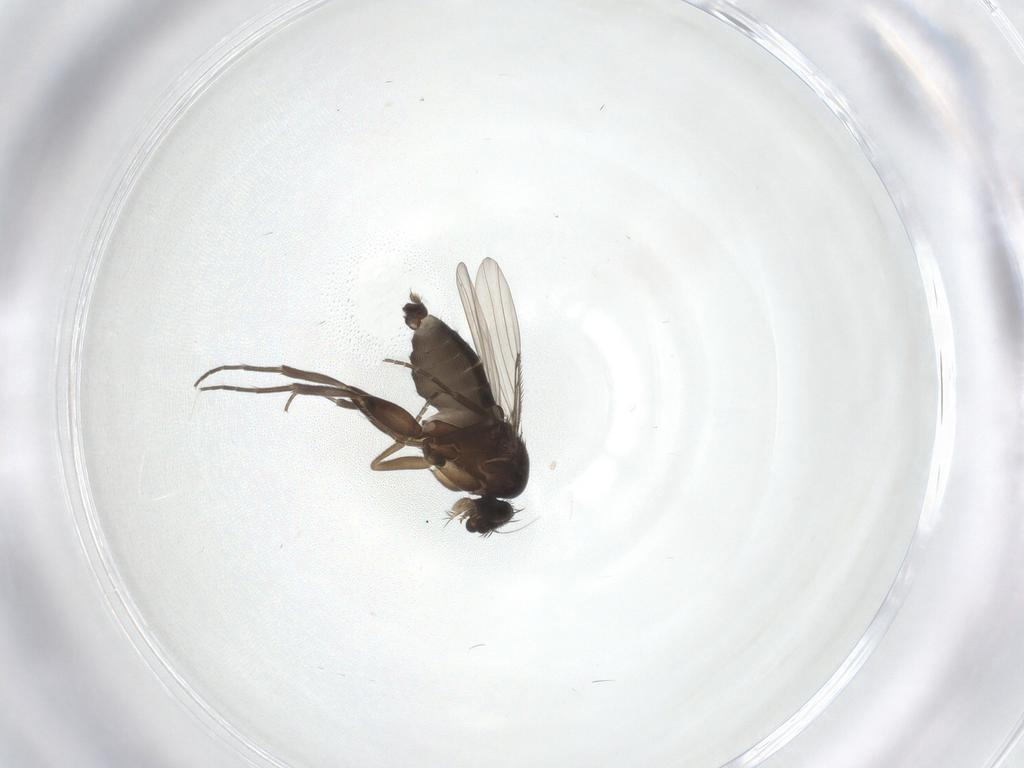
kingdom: Animalia
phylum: Arthropoda
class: Insecta
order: Diptera
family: Phoridae
